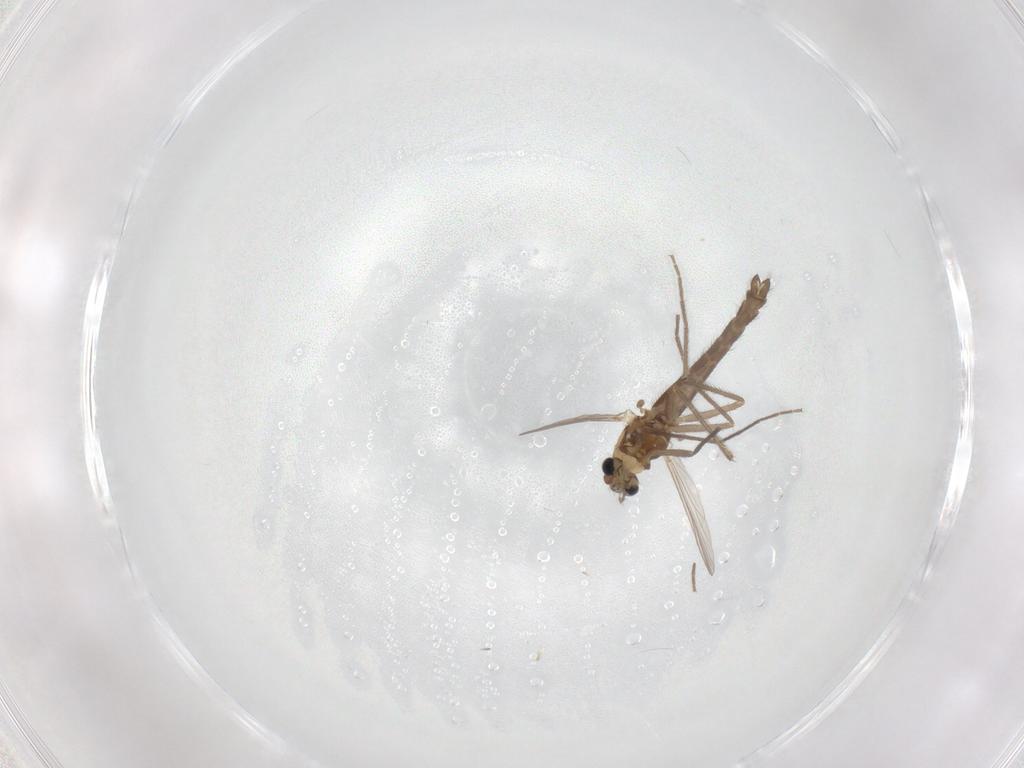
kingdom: Animalia
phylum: Arthropoda
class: Insecta
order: Diptera
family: Chironomidae
